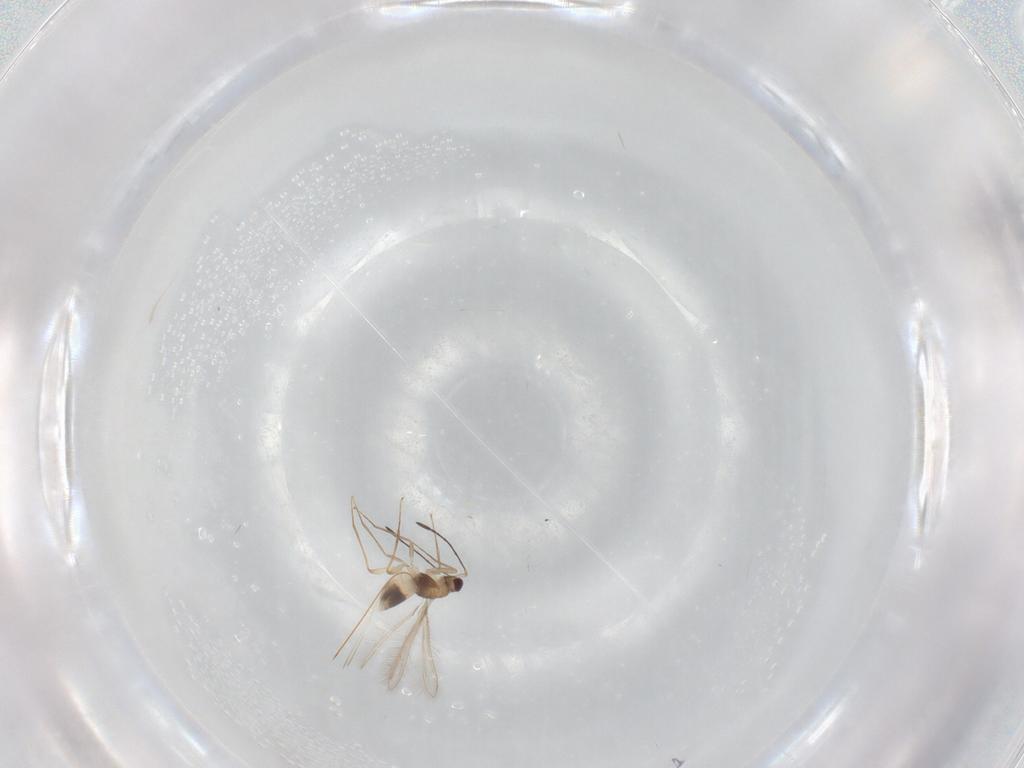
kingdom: Animalia
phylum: Arthropoda
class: Insecta
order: Hymenoptera
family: Mymaridae
